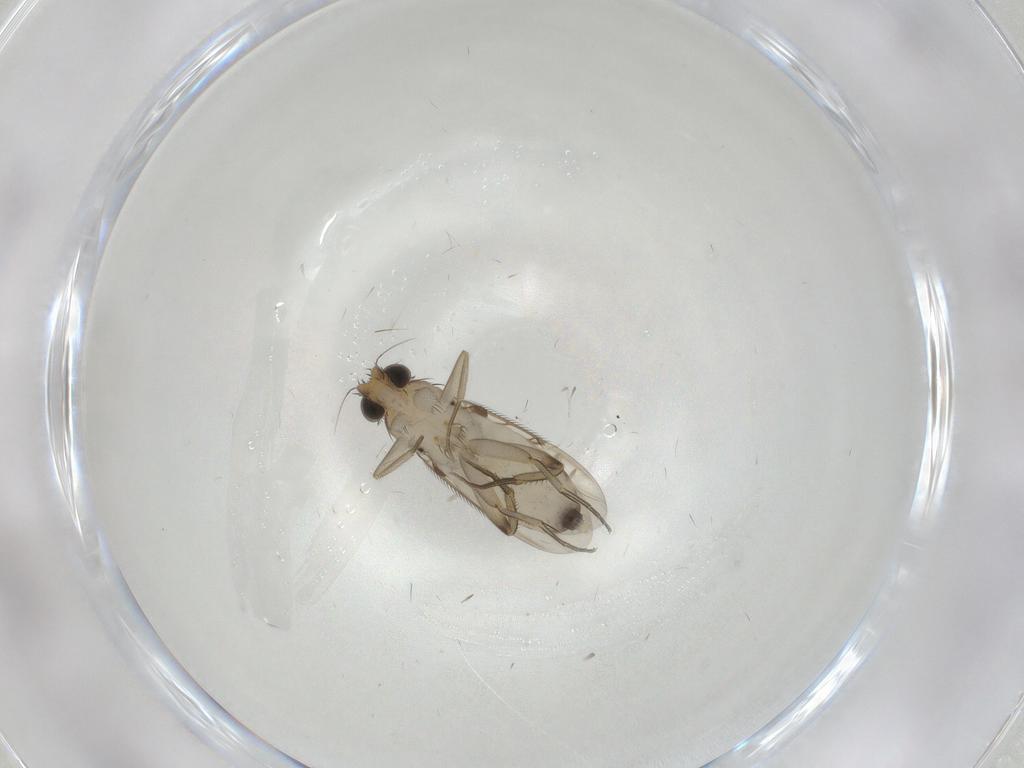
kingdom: Animalia
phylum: Arthropoda
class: Insecta
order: Diptera
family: Phoridae
